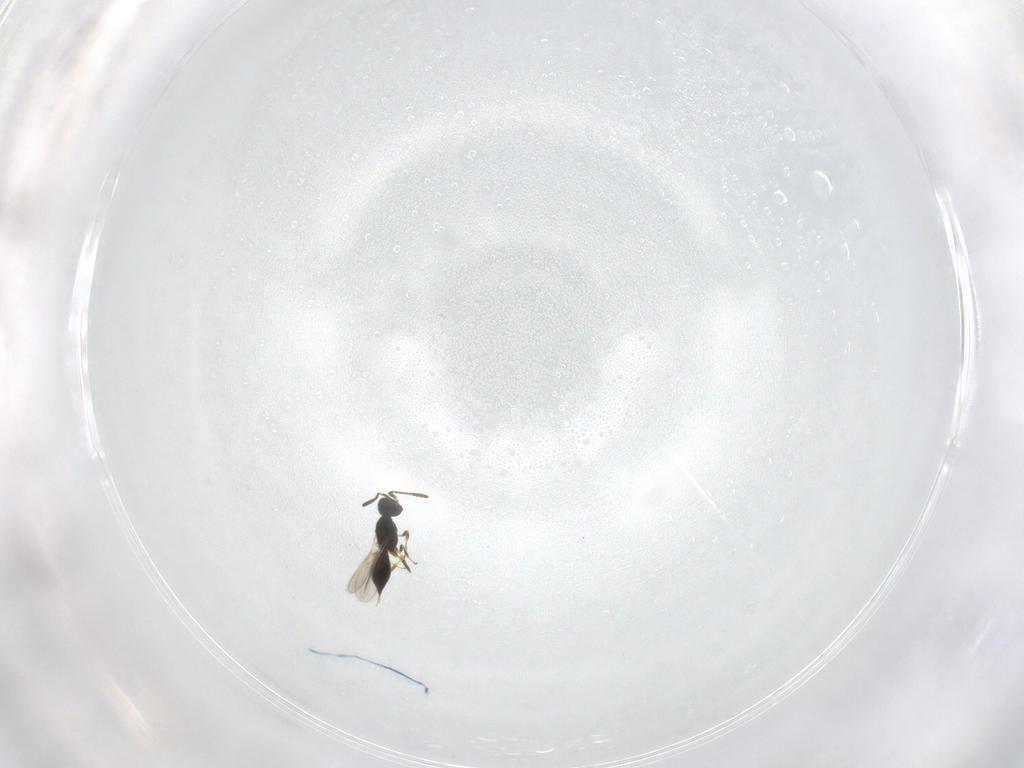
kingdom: Animalia
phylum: Arthropoda
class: Insecta
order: Hymenoptera
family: Scelionidae
